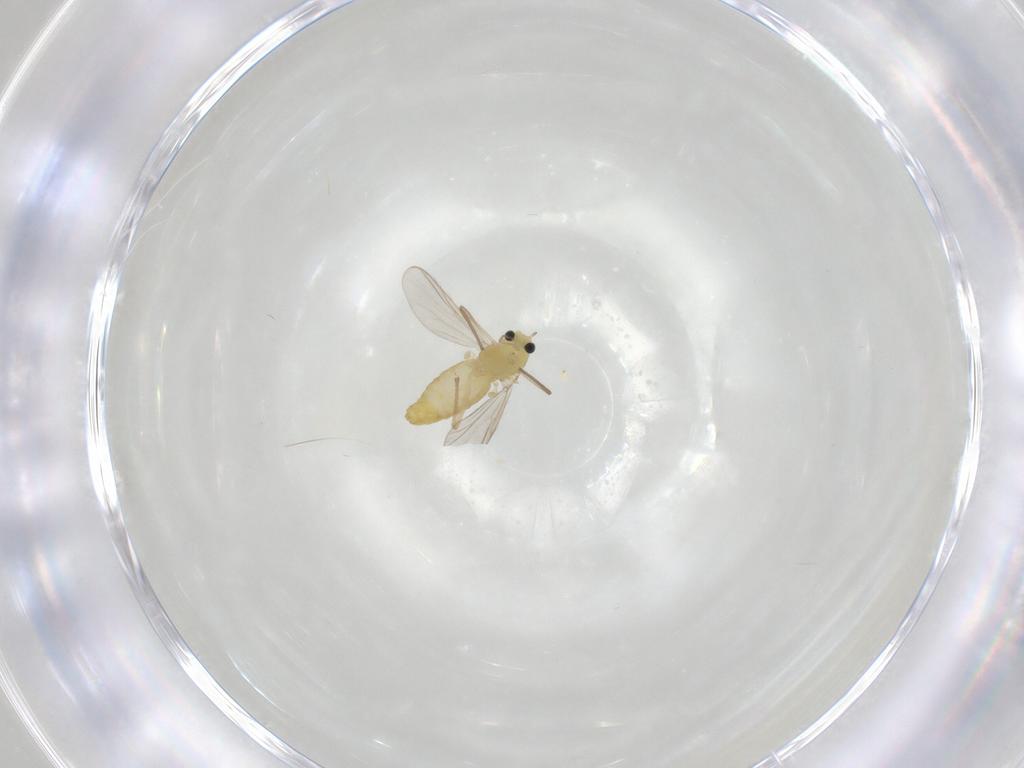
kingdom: Animalia
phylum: Arthropoda
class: Insecta
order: Diptera
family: Chironomidae
